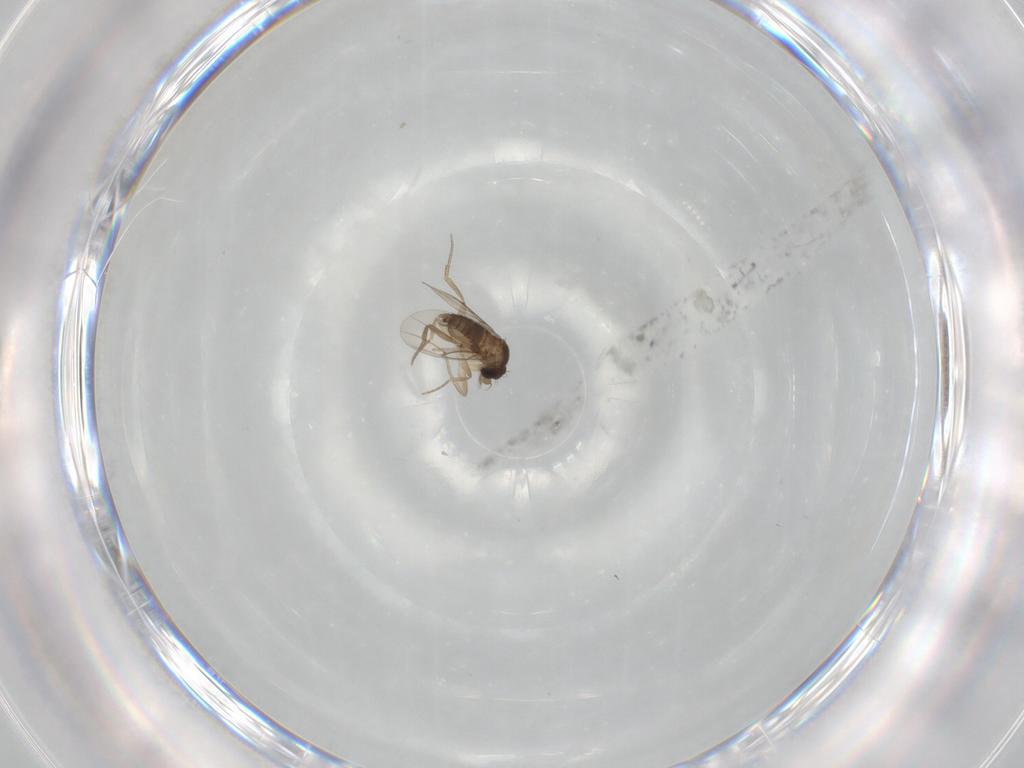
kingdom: Animalia
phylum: Arthropoda
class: Insecta
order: Diptera
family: Phoridae
